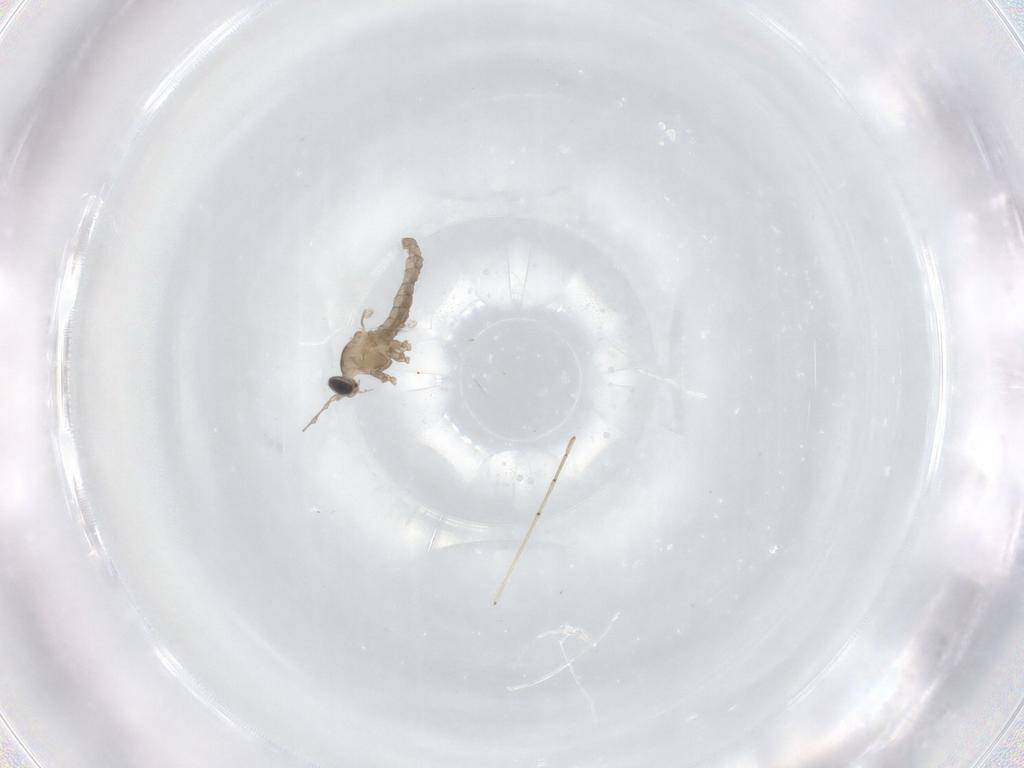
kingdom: Animalia
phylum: Arthropoda
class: Insecta
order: Diptera
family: Cecidomyiidae
